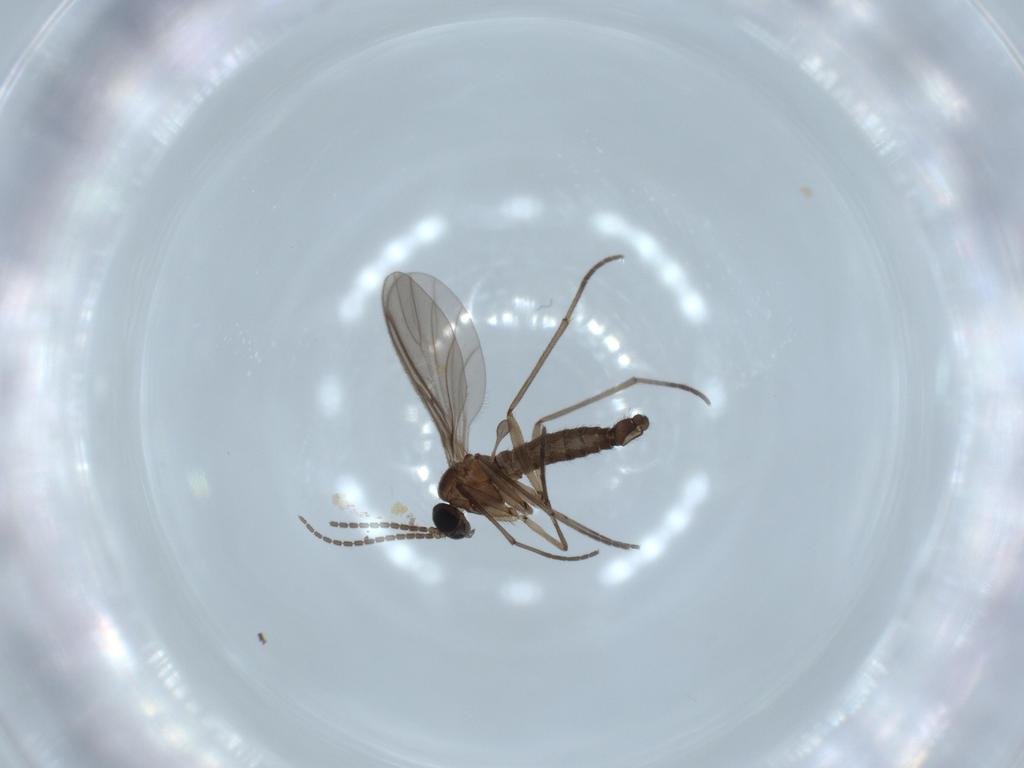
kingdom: Animalia
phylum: Arthropoda
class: Insecta
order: Diptera
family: Sciaridae
